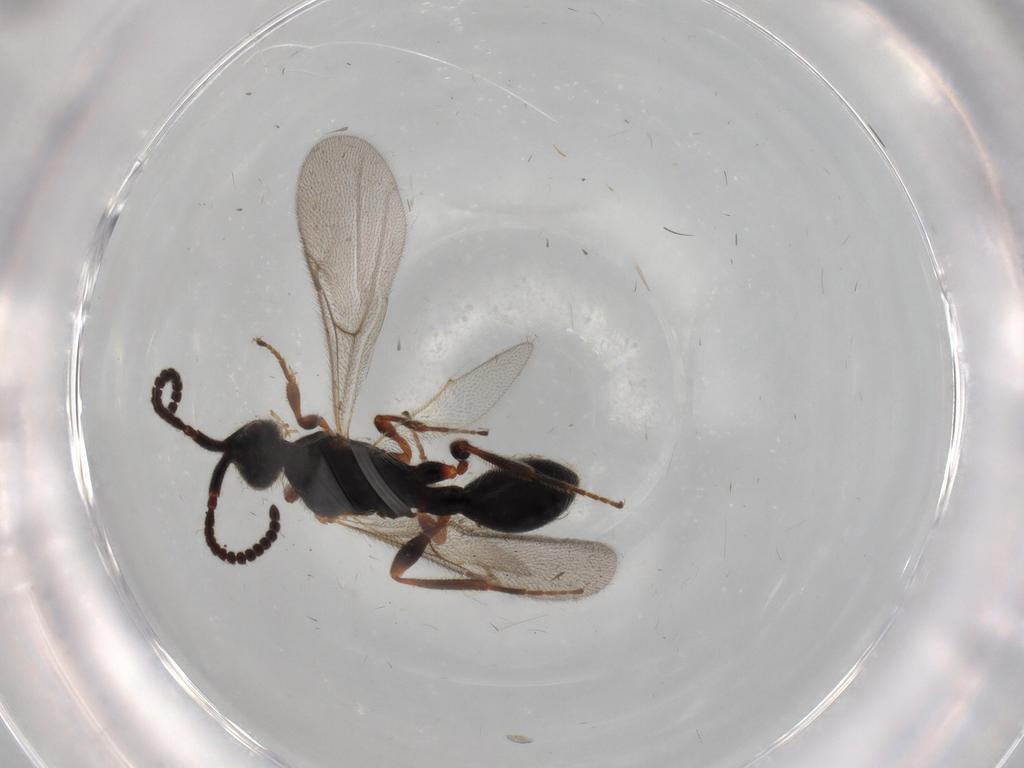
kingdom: Animalia
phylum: Arthropoda
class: Insecta
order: Hymenoptera
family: Diapriidae
